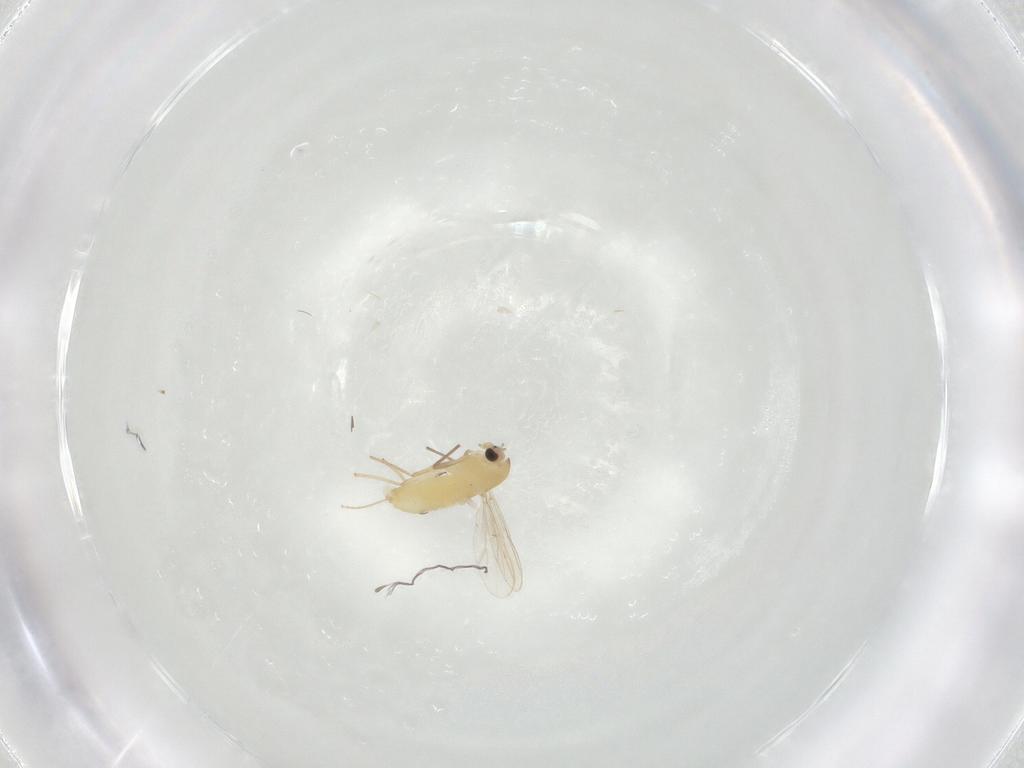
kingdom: Animalia
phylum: Arthropoda
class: Insecta
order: Diptera
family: Chironomidae
